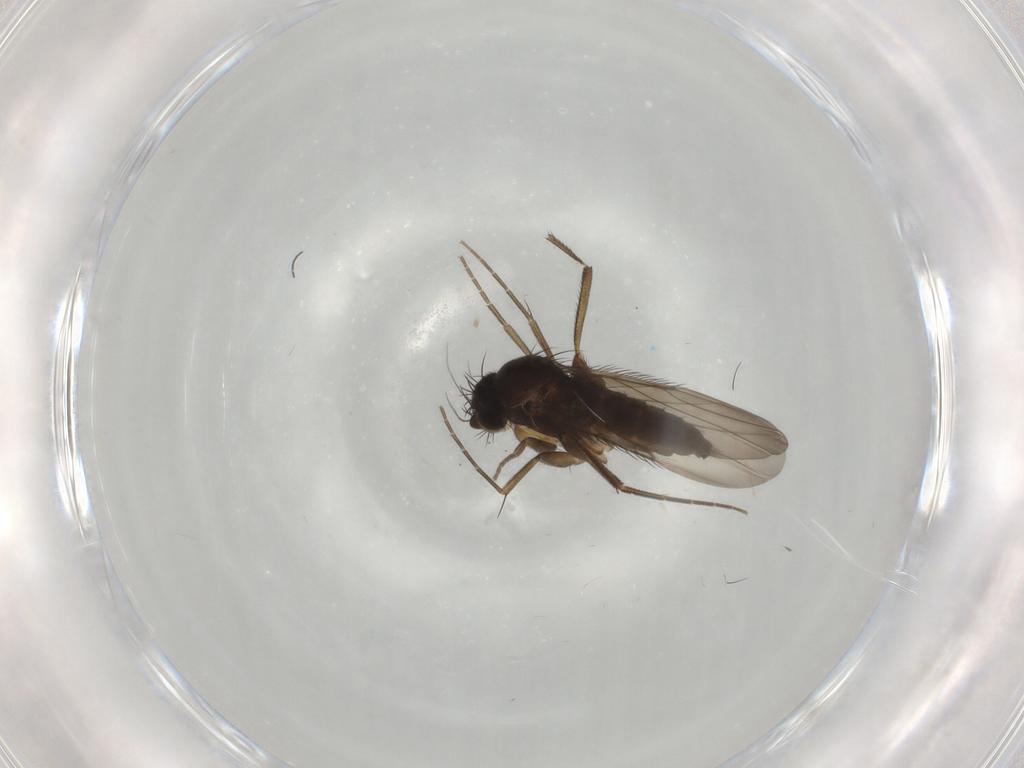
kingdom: Animalia
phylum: Arthropoda
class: Insecta
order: Diptera
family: Phoridae
